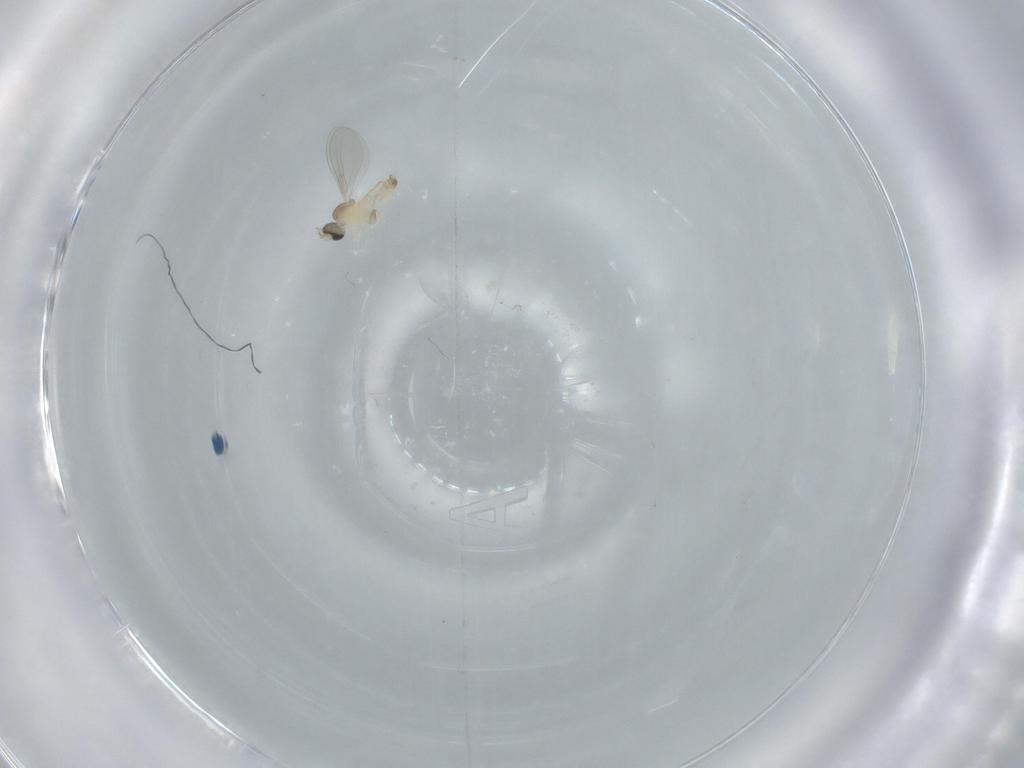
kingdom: Animalia
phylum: Arthropoda
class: Insecta
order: Diptera
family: Cecidomyiidae
